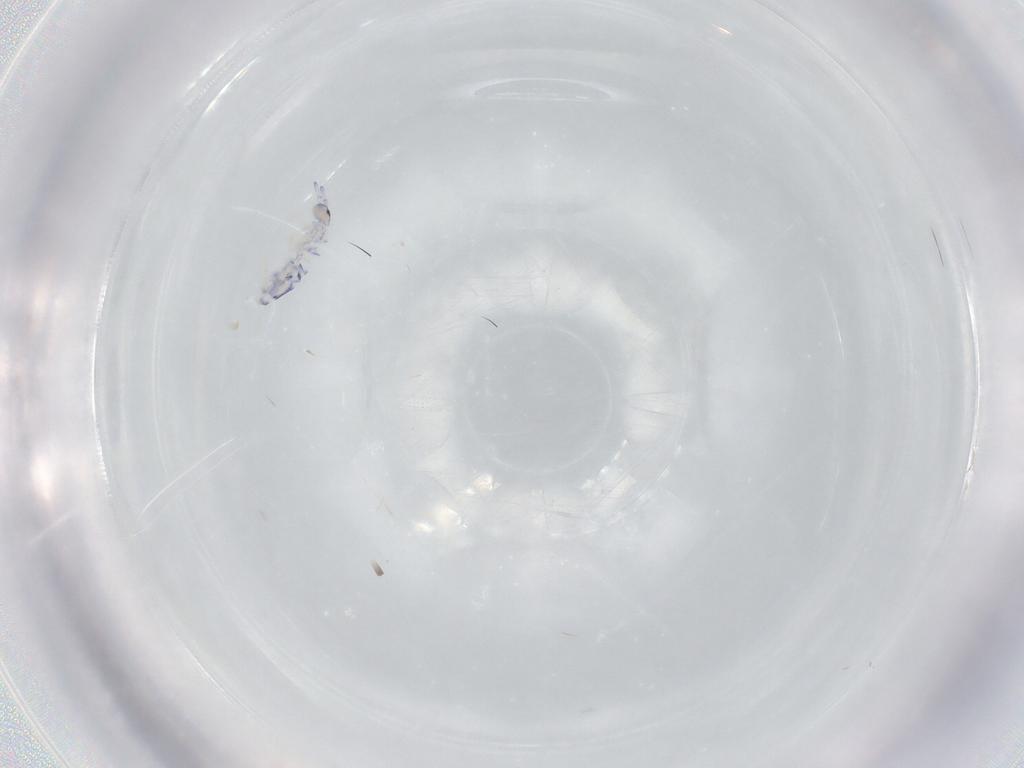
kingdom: Animalia
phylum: Arthropoda
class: Collembola
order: Entomobryomorpha
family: Entomobryidae
